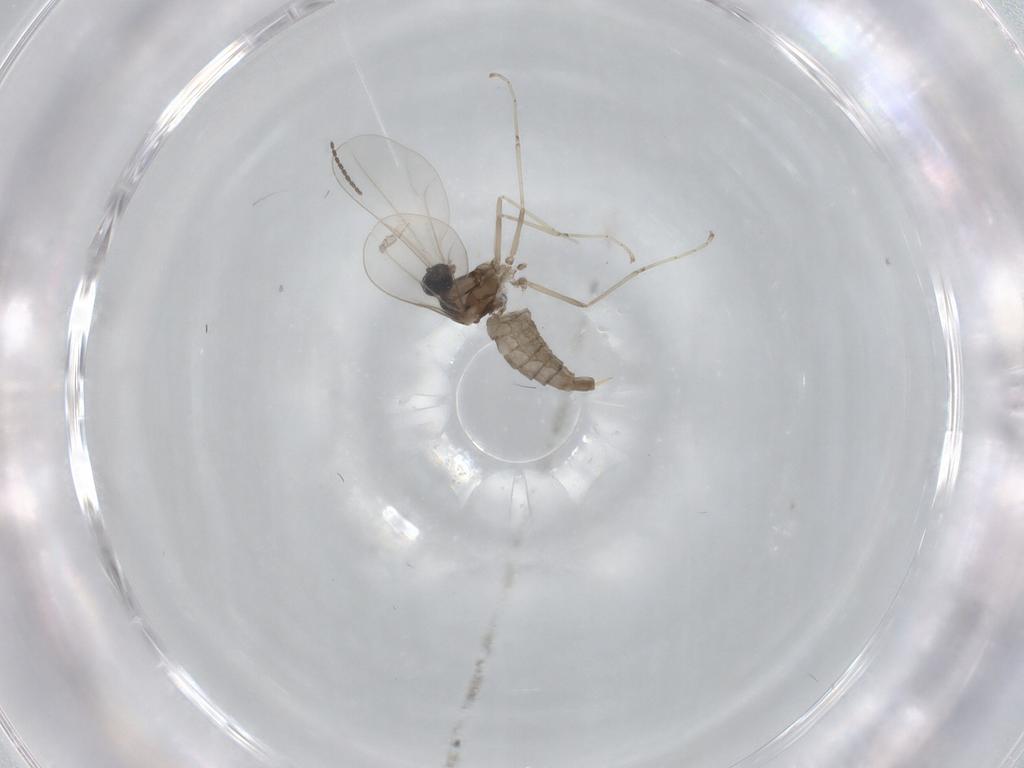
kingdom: Animalia
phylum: Arthropoda
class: Insecta
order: Diptera
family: Cecidomyiidae
